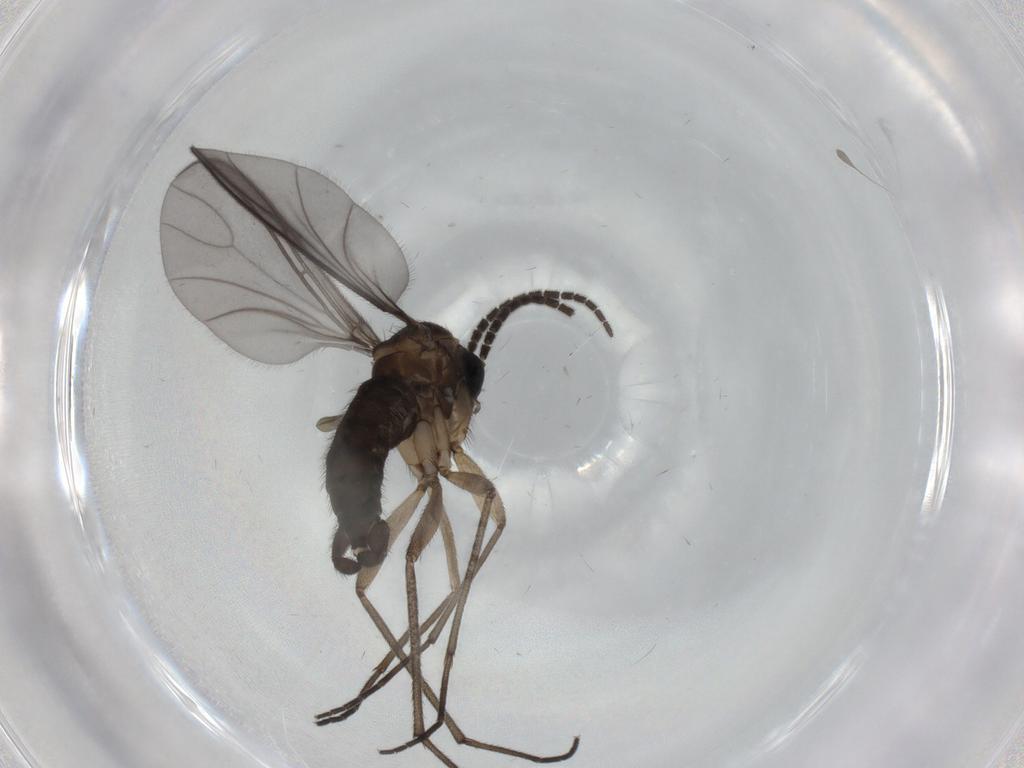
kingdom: Animalia
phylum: Arthropoda
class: Insecta
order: Diptera
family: Sciaridae
